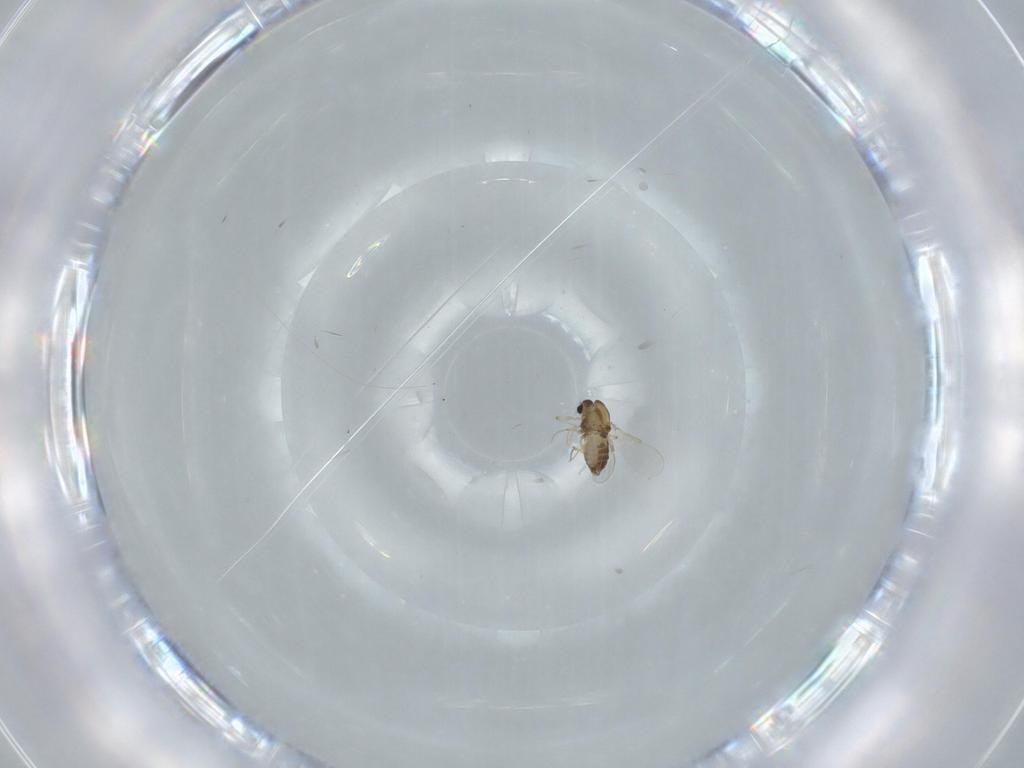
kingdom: Animalia
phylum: Arthropoda
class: Insecta
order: Diptera
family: Chironomidae
